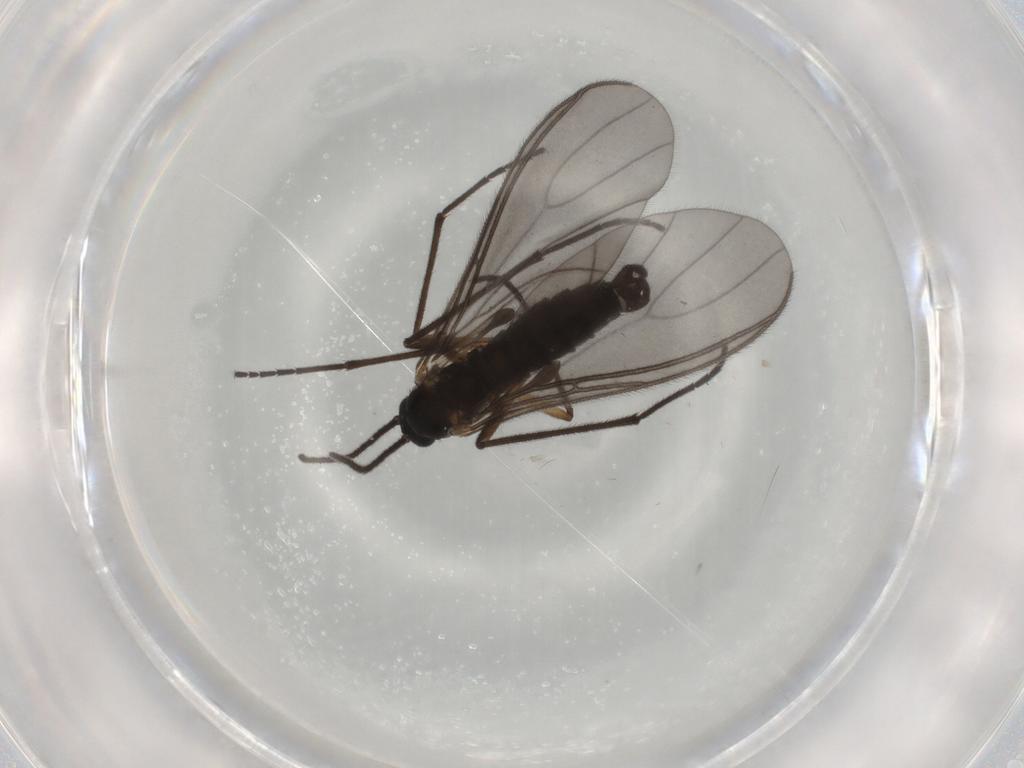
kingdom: Animalia
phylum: Arthropoda
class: Insecta
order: Diptera
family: Sciaridae
